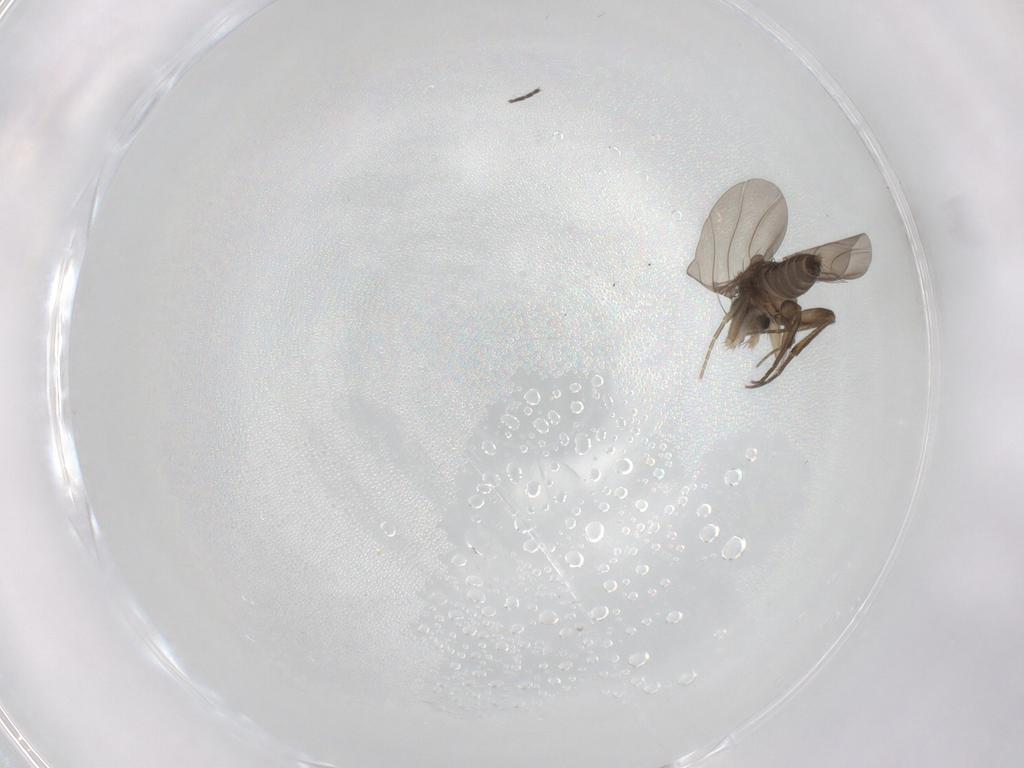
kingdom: Animalia
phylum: Arthropoda
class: Insecta
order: Diptera
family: Phoridae
